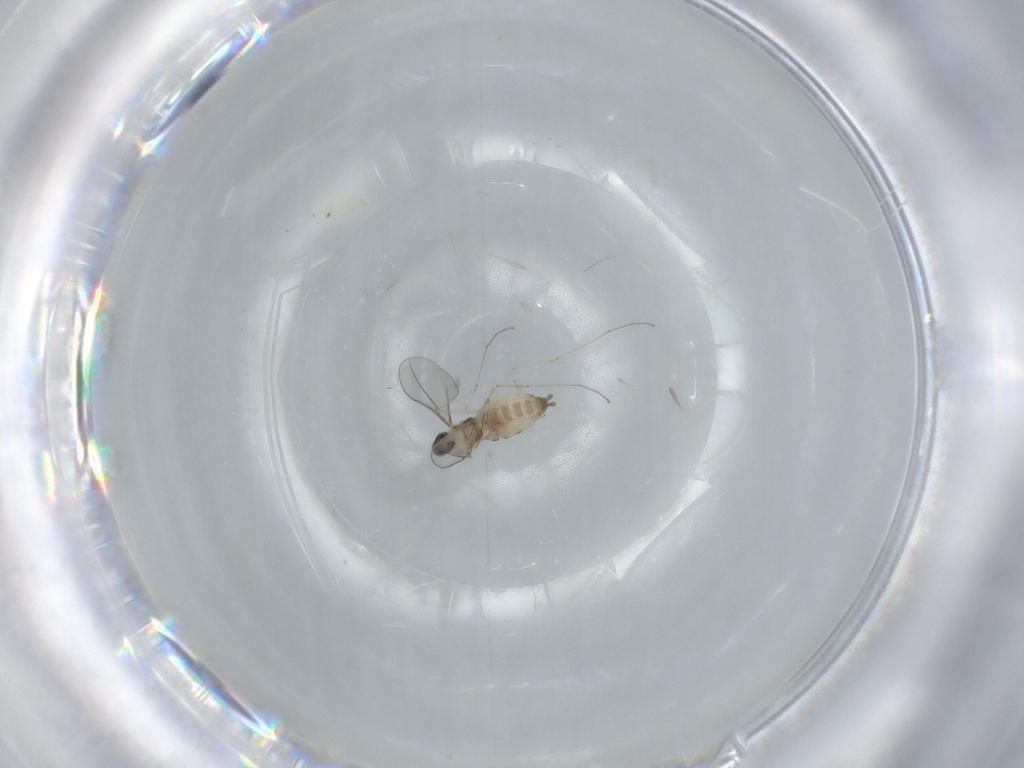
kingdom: Animalia
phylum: Arthropoda
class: Insecta
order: Diptera
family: Cecidomyiidae
